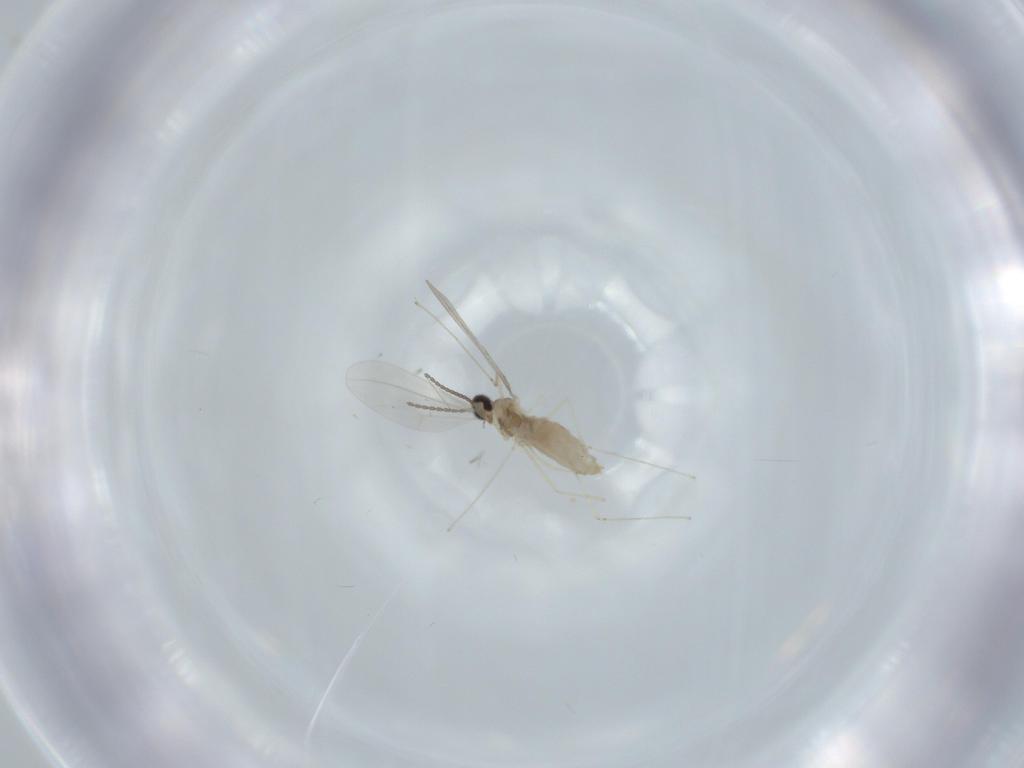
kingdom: Animalia
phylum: Arthropoda
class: Insecta
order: Diptera
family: Cecidomyiidae
